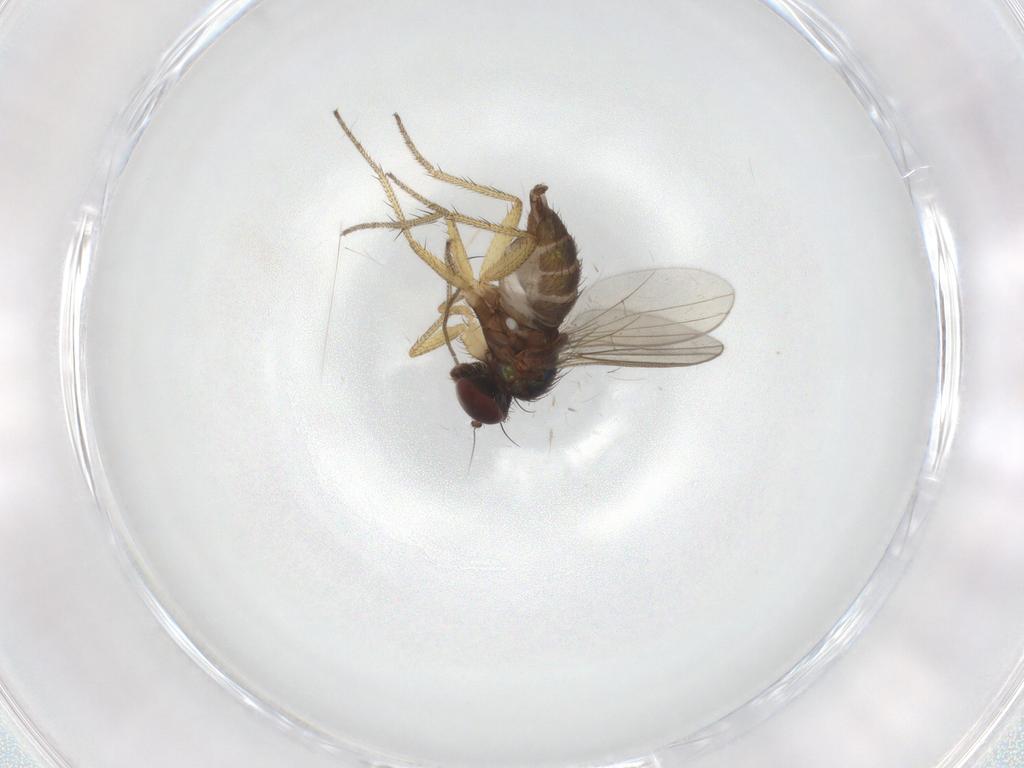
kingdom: Animalia
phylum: Arthropoda
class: Insecta
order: Diptera
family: Dolichopodidae
